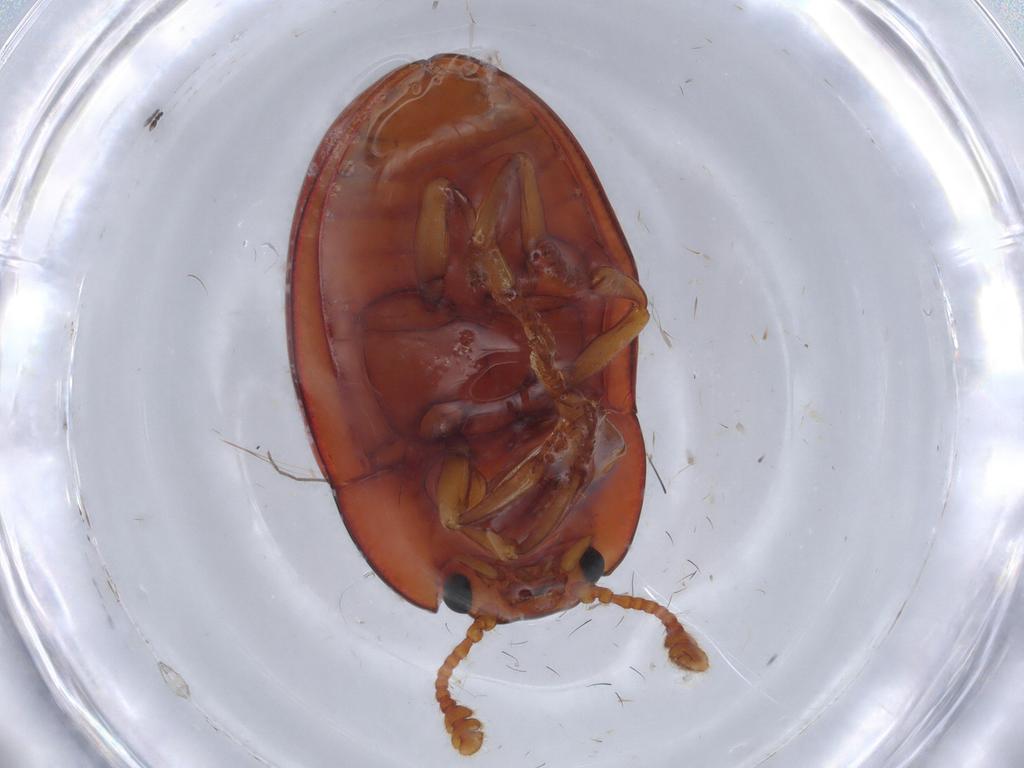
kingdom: Animalia
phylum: Arthropoda
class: Insecta
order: Coleoptera
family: Erotylidae
